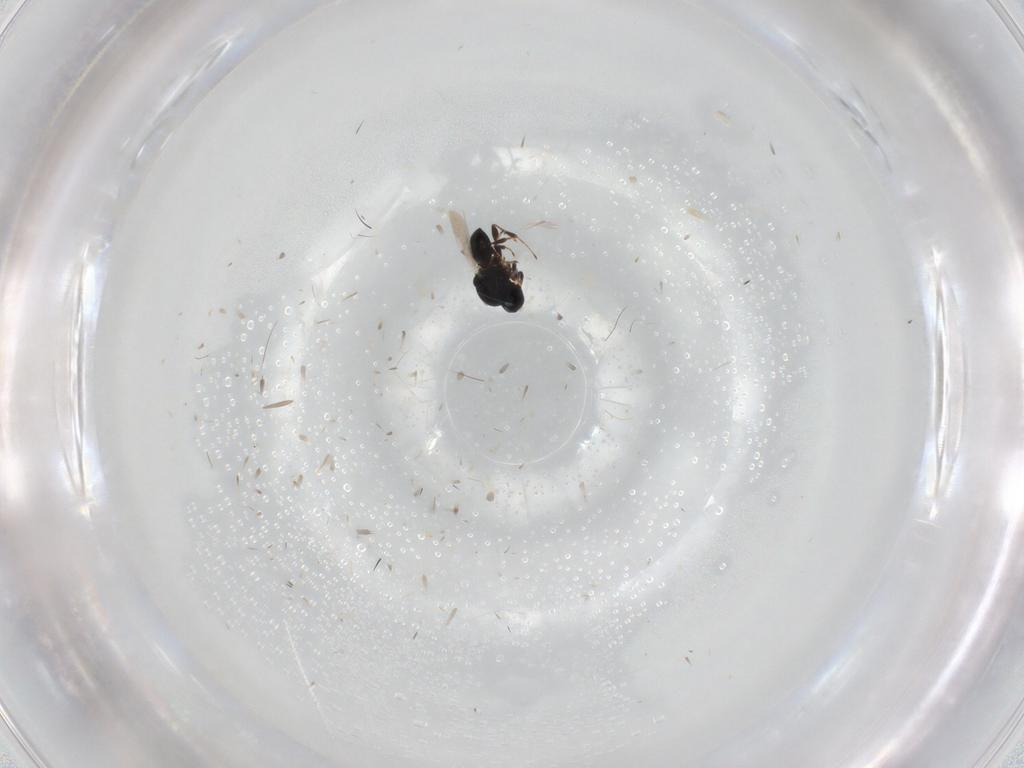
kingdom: Animalia
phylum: Arthropoda
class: Insecta
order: Hymenoptera
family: Platygastridae
